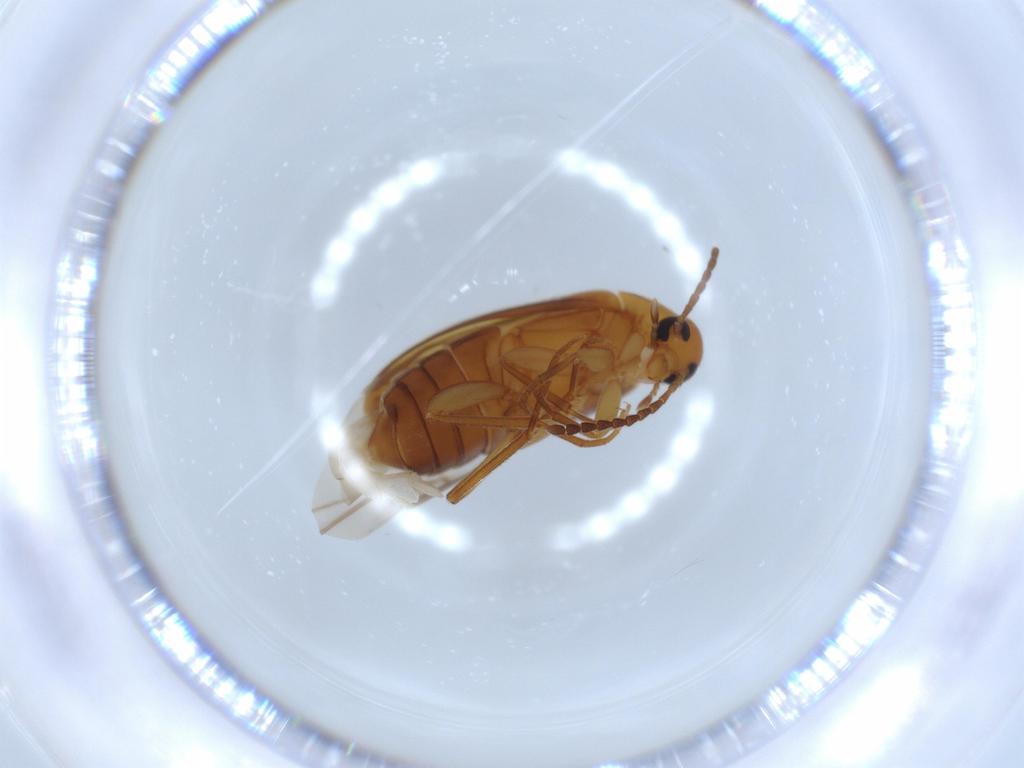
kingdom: Animalia
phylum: Arthropoda
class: Insecta
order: Coleoptera
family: Scraptiidae
